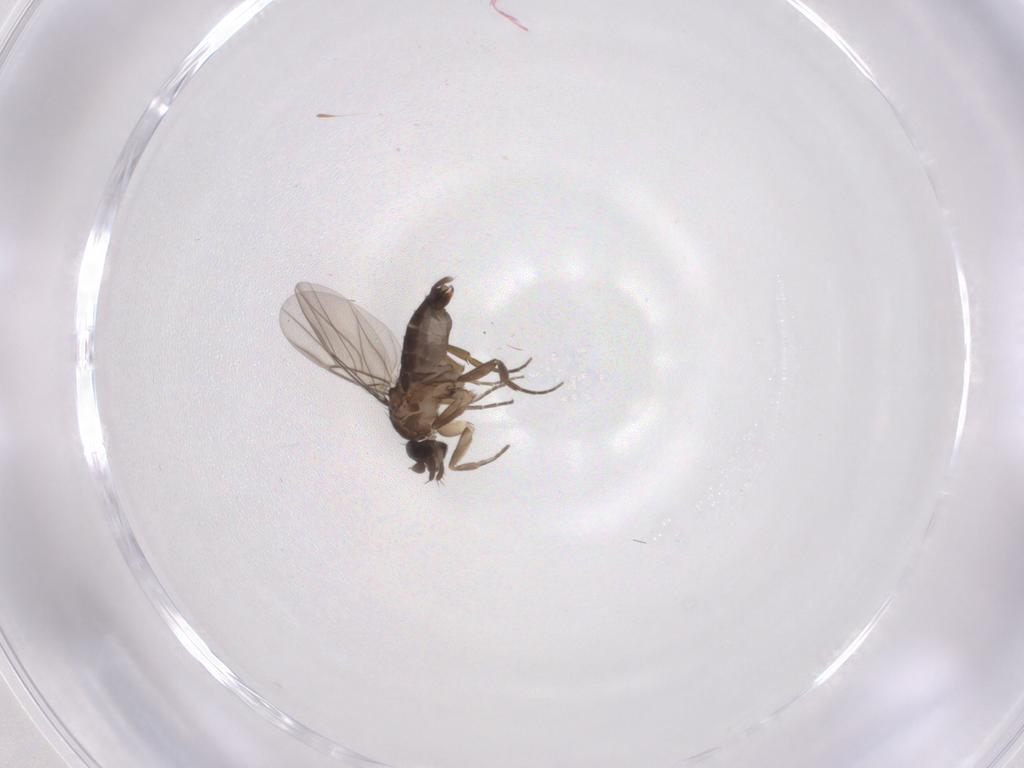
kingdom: Animalia
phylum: Arthropoda
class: Insecta
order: Diptera
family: Phoridae
